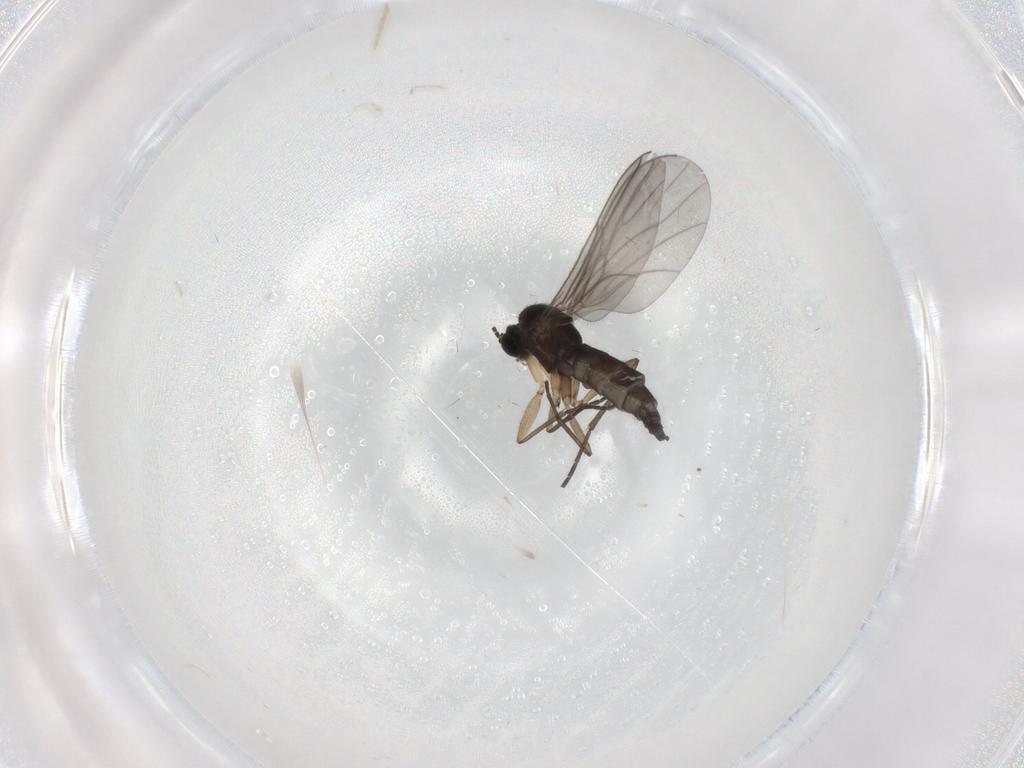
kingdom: Animalia
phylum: Arthropoda
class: Insecta
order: Diptera
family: Sciaridae
